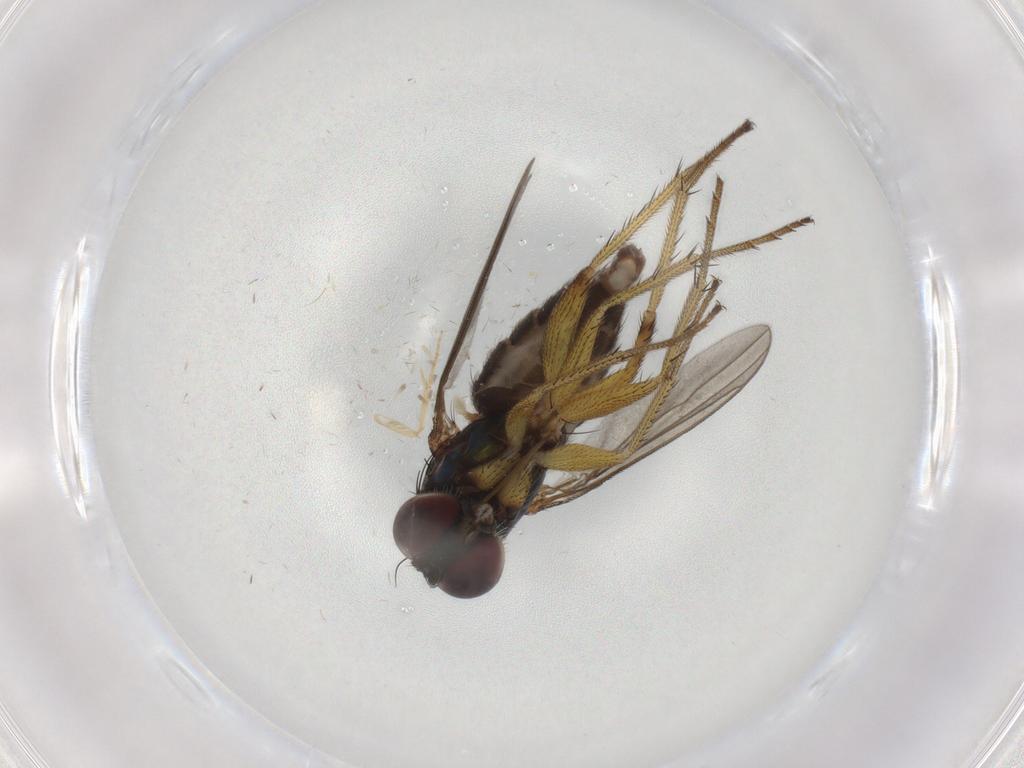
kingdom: Animalia
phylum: Arthropoda
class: Insecta
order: Diptera
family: Dolichopodidae
